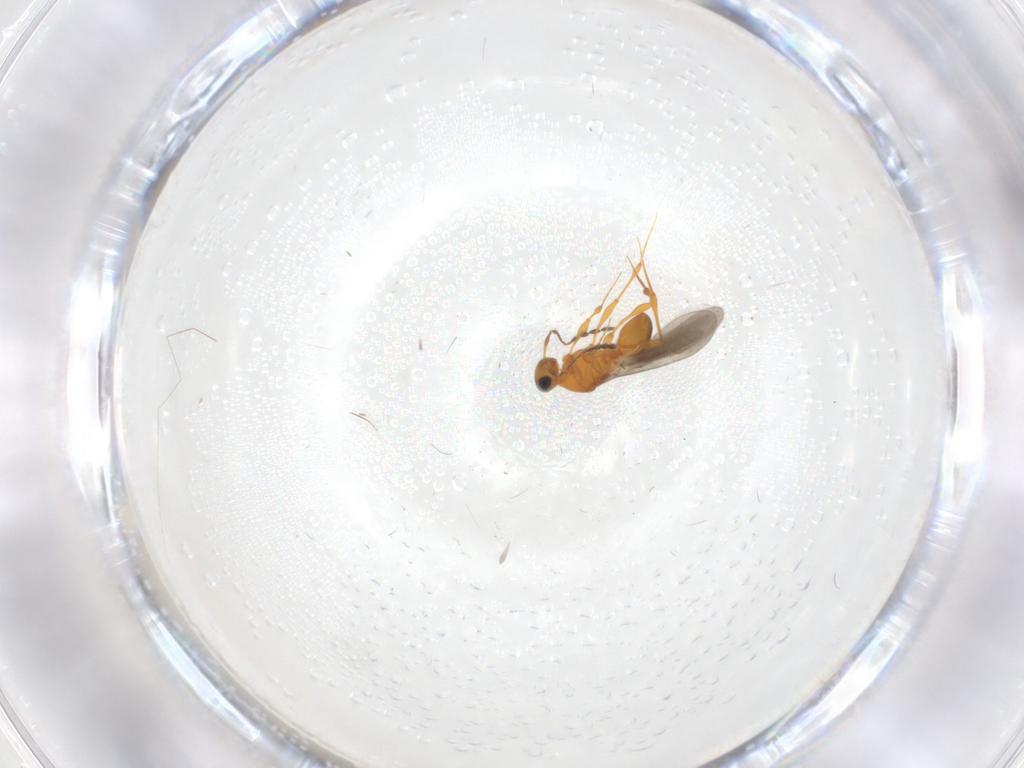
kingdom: Animalia
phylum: Arthropoda
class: Insecta
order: Hymenoptera
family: Platygastridae
